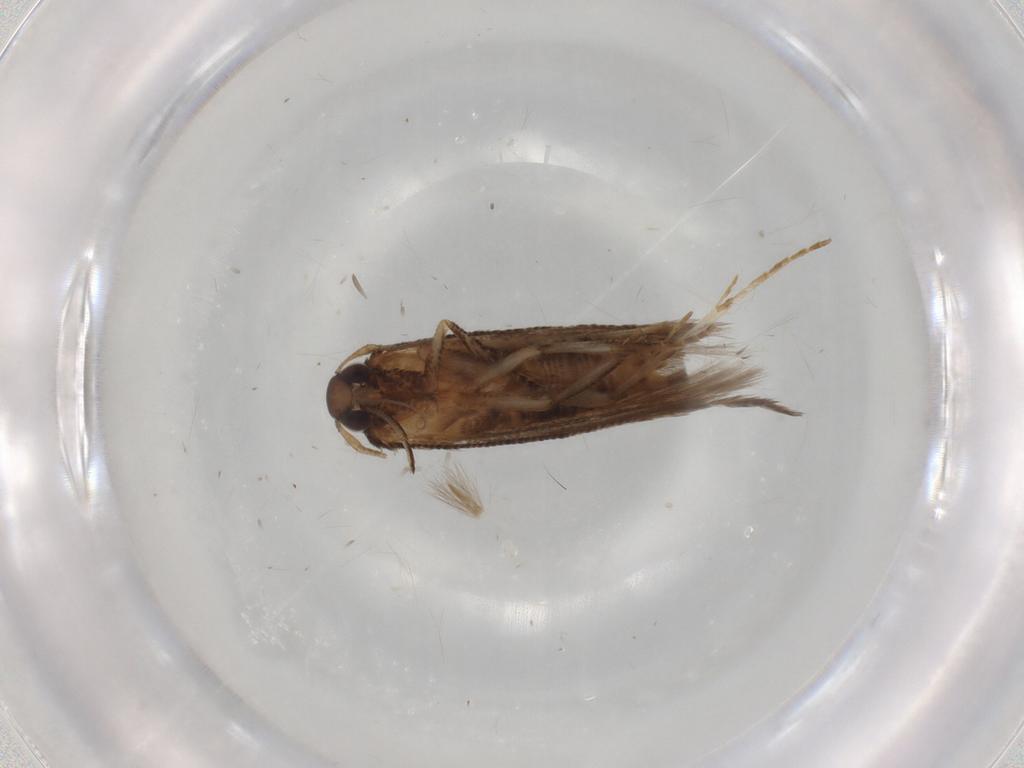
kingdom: Animalia
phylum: Arthropoda
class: Insecta
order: Lepidoptera
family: Cosmopterigidae
